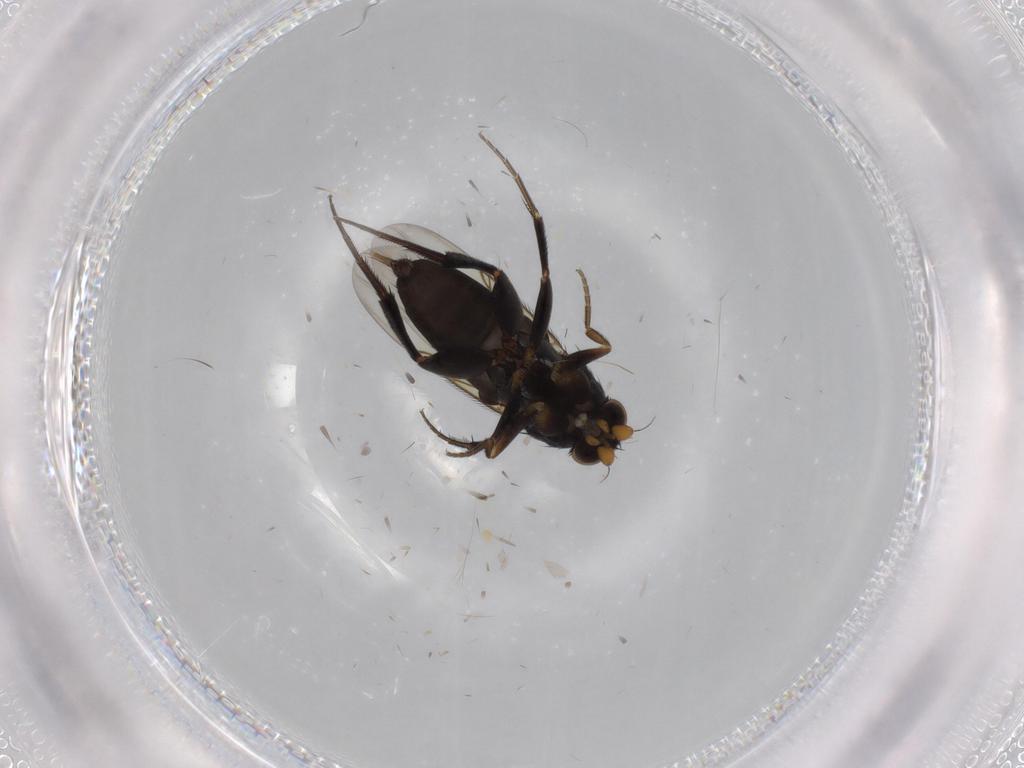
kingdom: Animalia
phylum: Arthropoda
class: Insecta
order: Diptera
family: Phoridae
